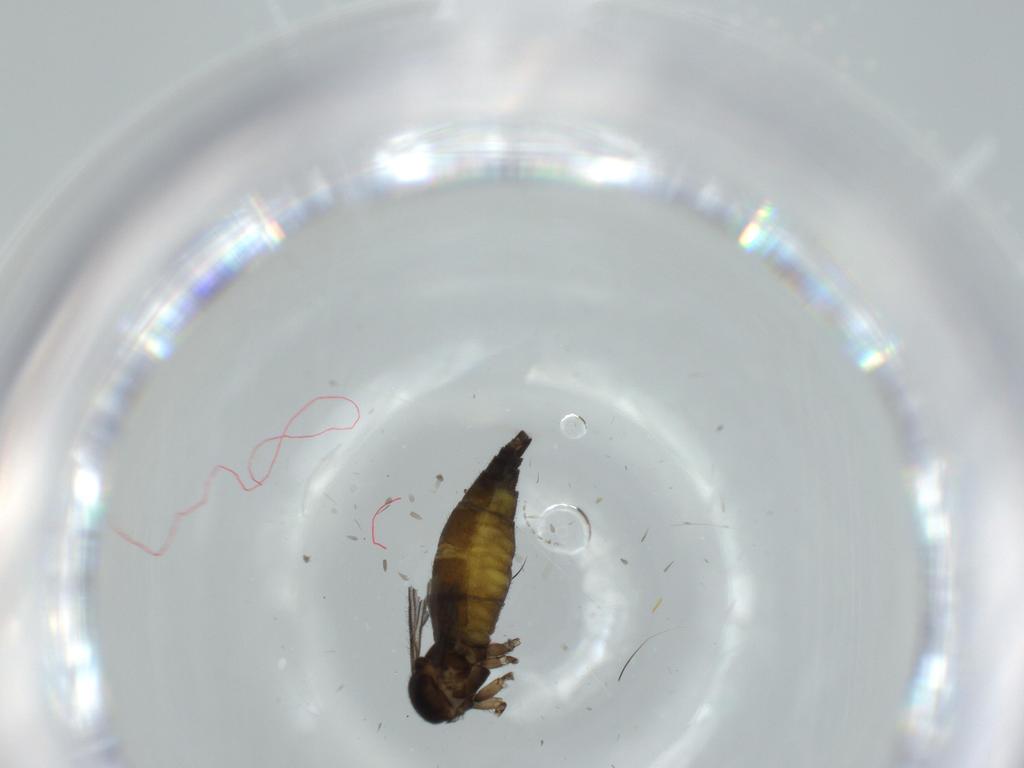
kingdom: Animalia
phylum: Arthropoda
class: Insecta
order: Diptera
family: Sciaridae
